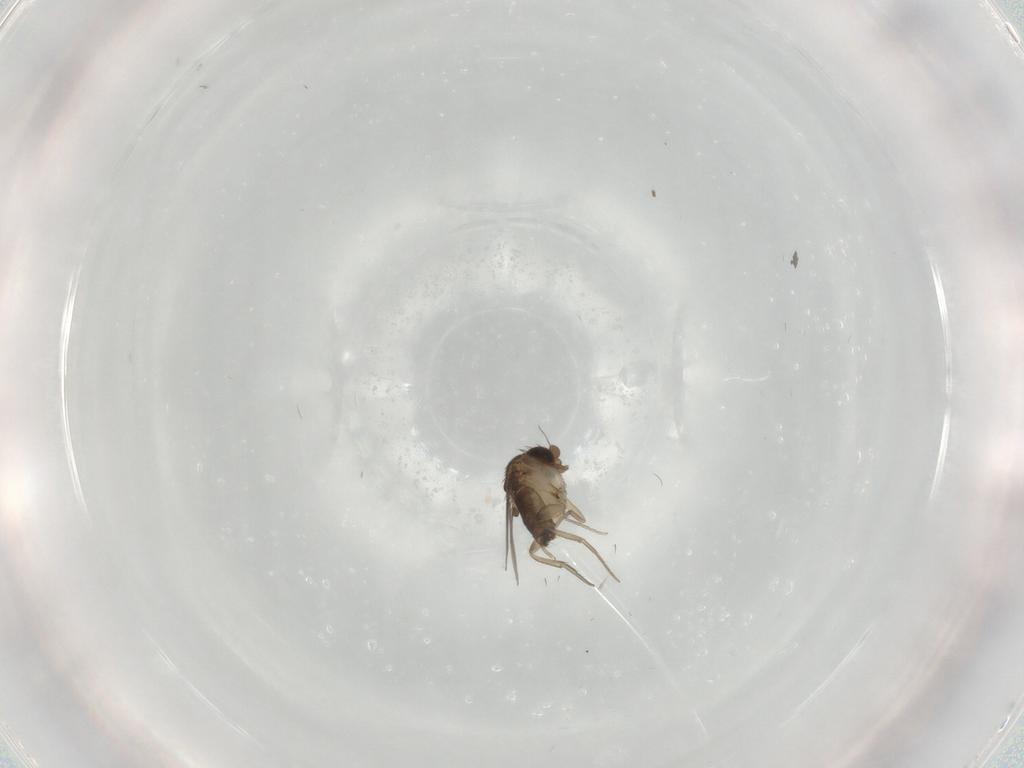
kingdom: Animalia
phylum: Arthropoda
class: Insecta
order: Diptera
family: Phoridae
